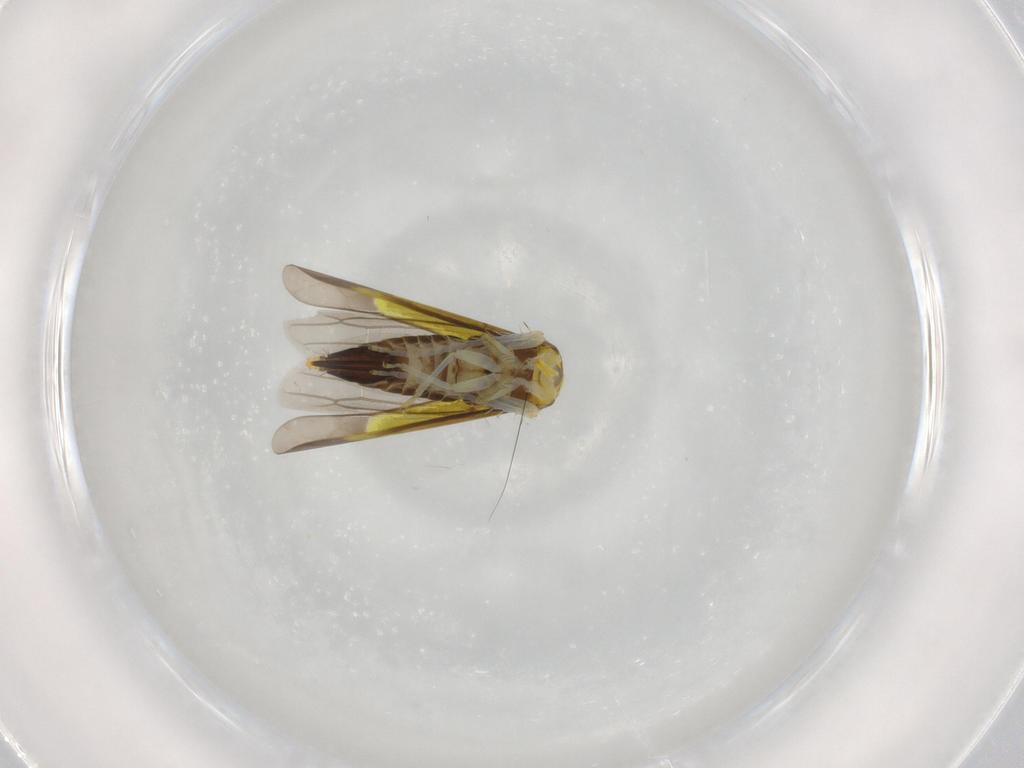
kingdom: Animalia
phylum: Arthropoda
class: Insecta
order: Hemiptera
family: Cicadellidae
